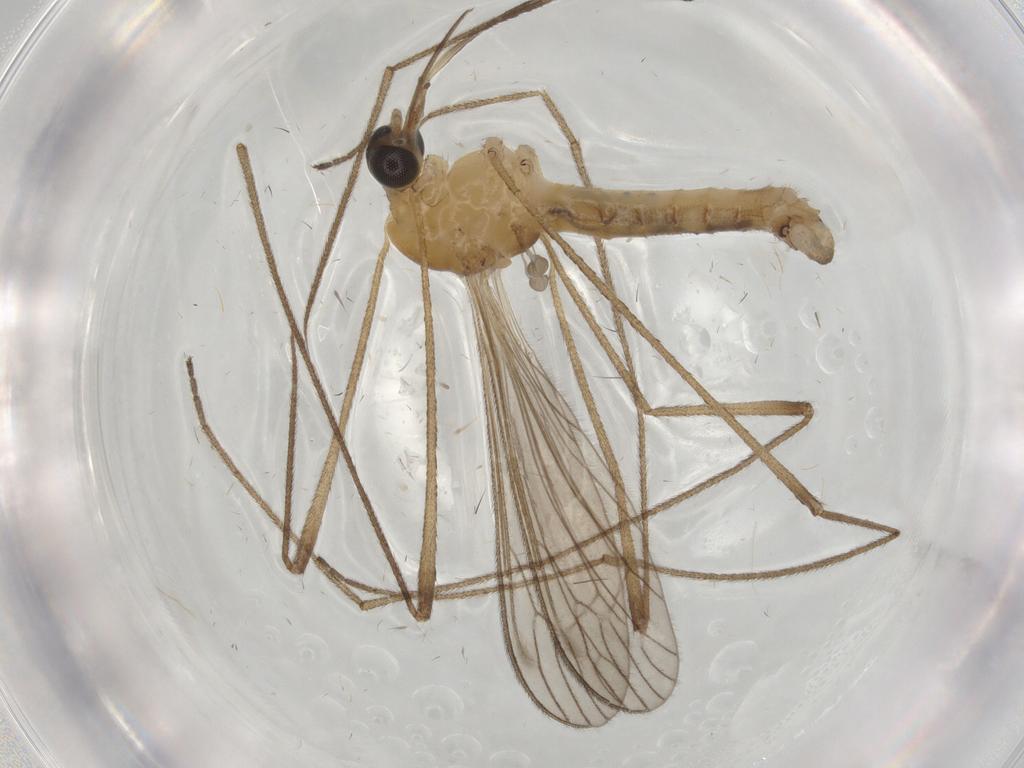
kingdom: Animalia
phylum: Arthropoda
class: Insecta
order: Diptera
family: Limoniidae
